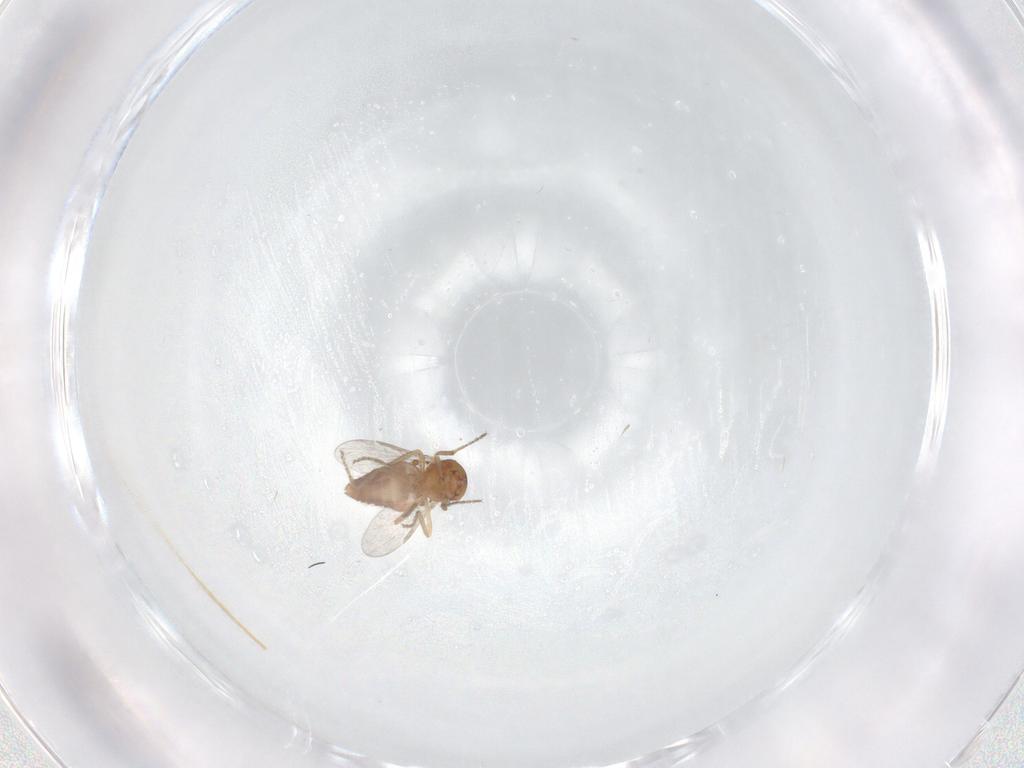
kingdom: Animalia
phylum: Arthropoda
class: Insecta
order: Diptera
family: Ceratopogonidae
